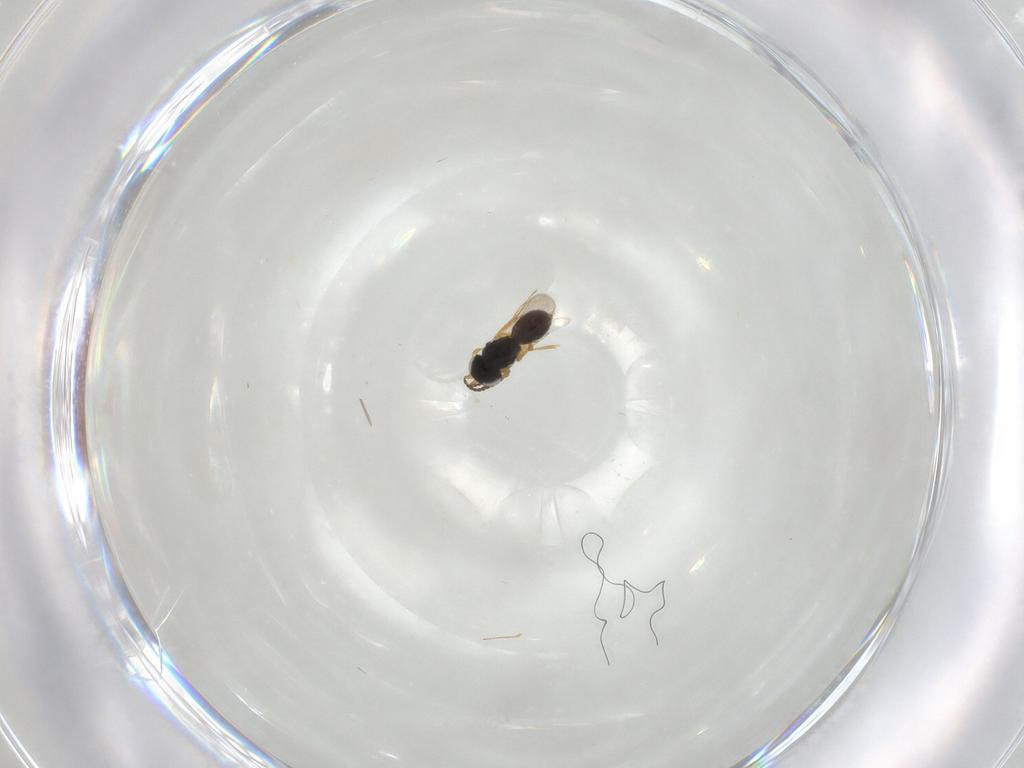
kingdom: Animalia
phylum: Arthropoda
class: Insecta
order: Hymenoptera
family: Scelionidae
